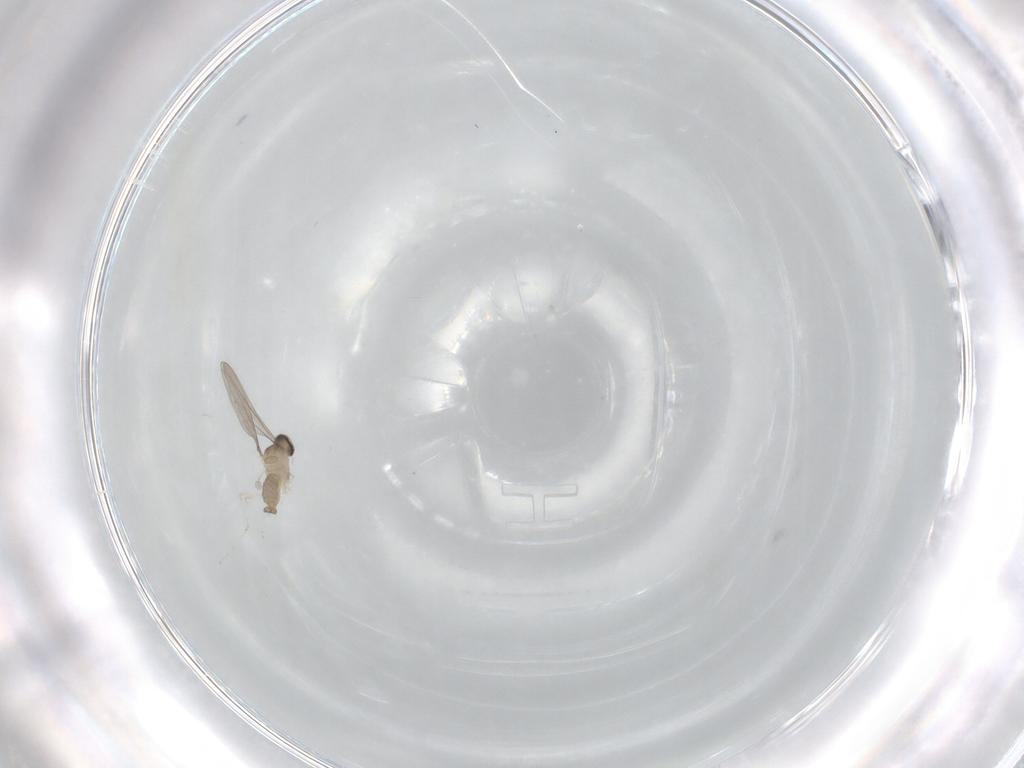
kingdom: Animalia
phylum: Arthropoda
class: Insecta
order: Diptera
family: Cecidomyiidae
